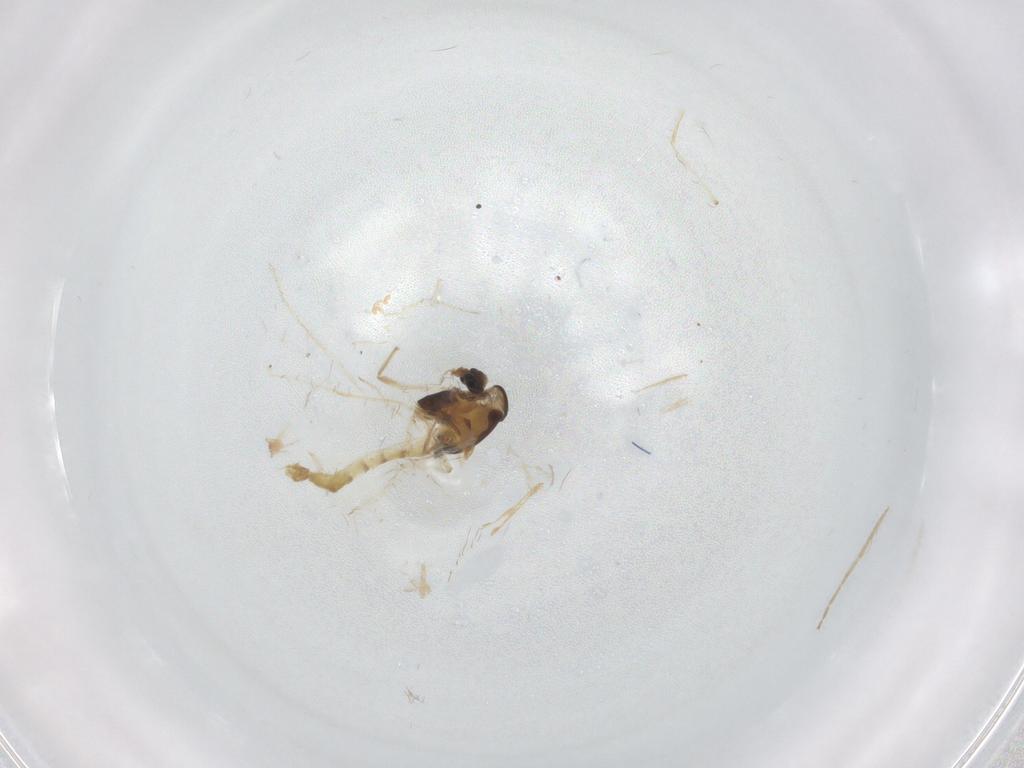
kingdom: Animalia
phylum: Arthropoda
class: Insecta
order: Diptera
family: Chironomidae
